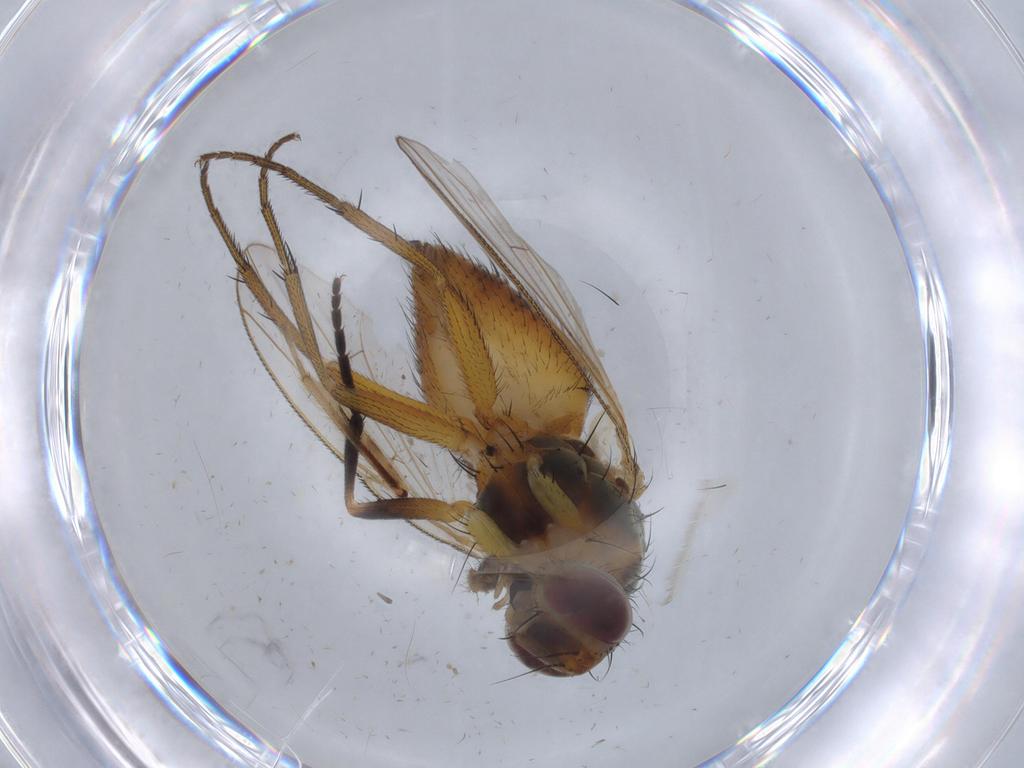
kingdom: Animalia
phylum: Arthropoda
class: Insecta
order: Diptera
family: Muscidae
